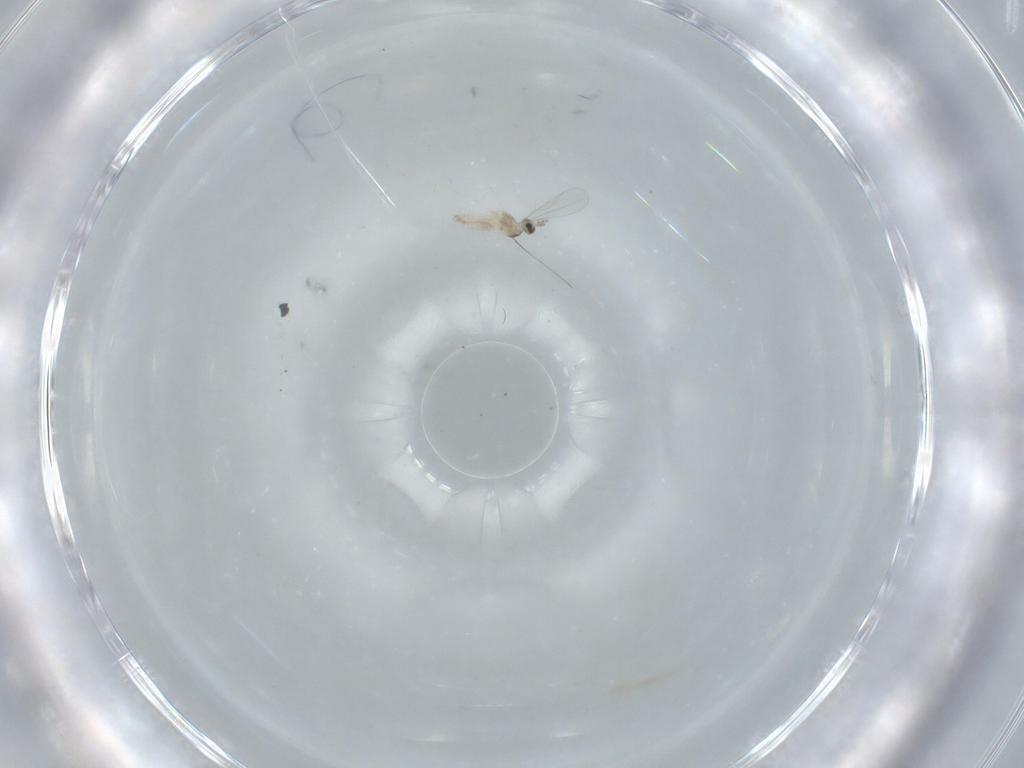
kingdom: Animalia
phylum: Arthropoda
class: Insecta
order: Diptera
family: Cecidomyiidae
